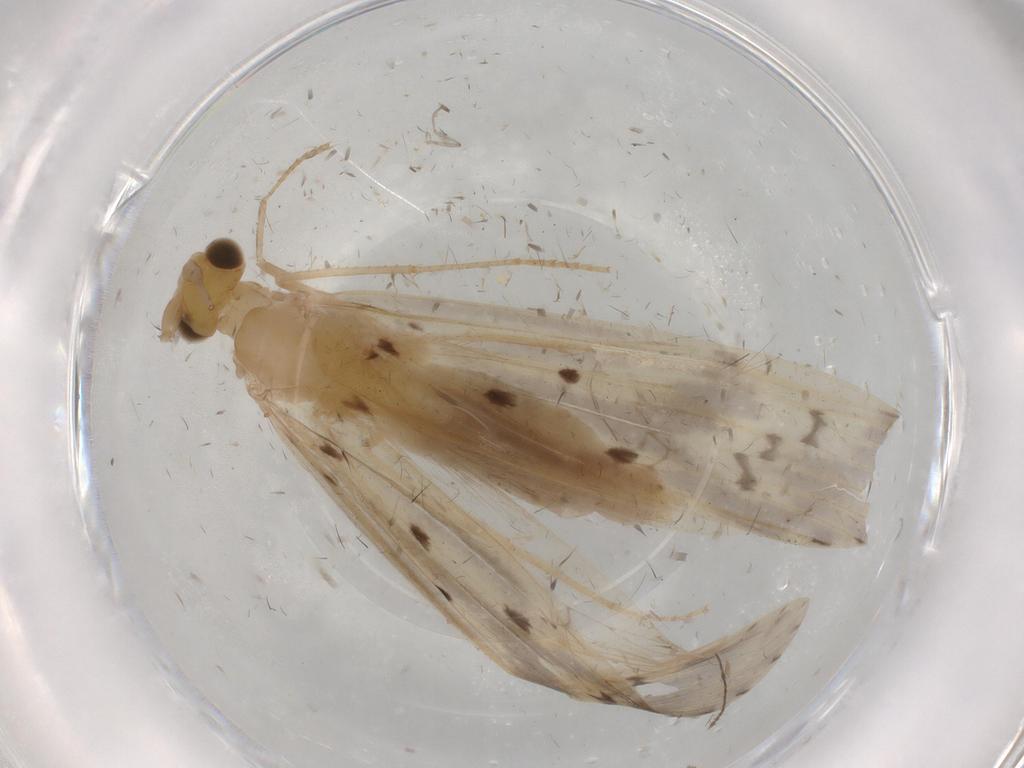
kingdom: Animalia
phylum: Arthropoda
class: Insecta
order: Trichoptera
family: Leptoceridae
